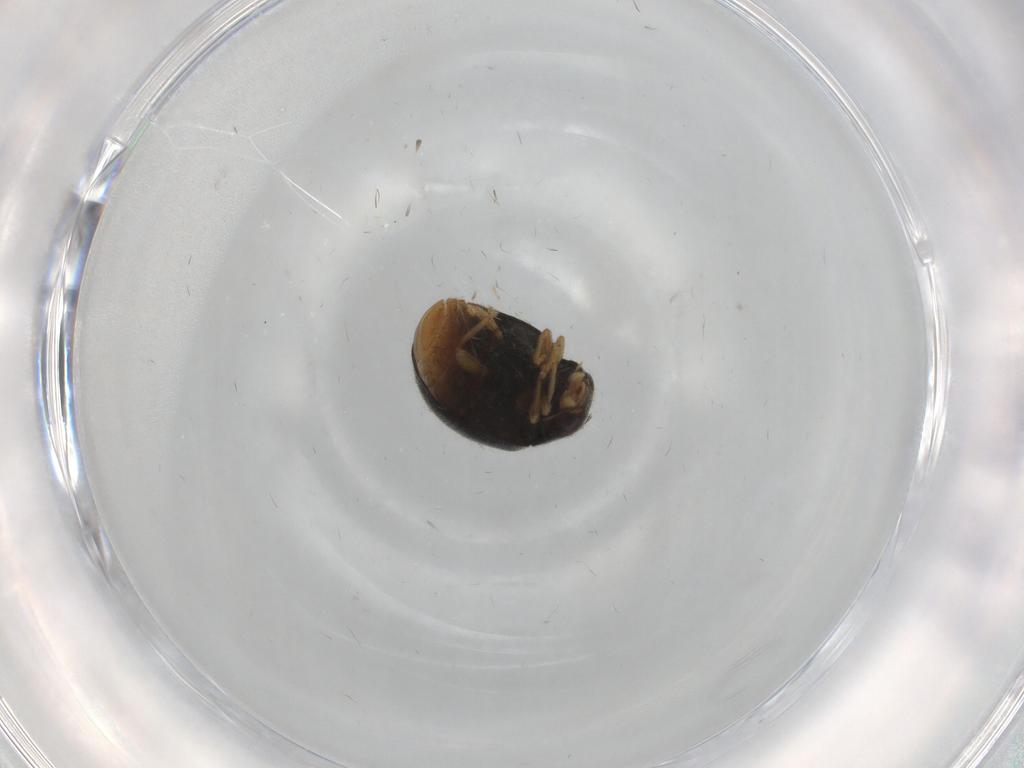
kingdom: Animalia
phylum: Arthropoda
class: Insecta
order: Coleoptera
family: Coccinellidae
